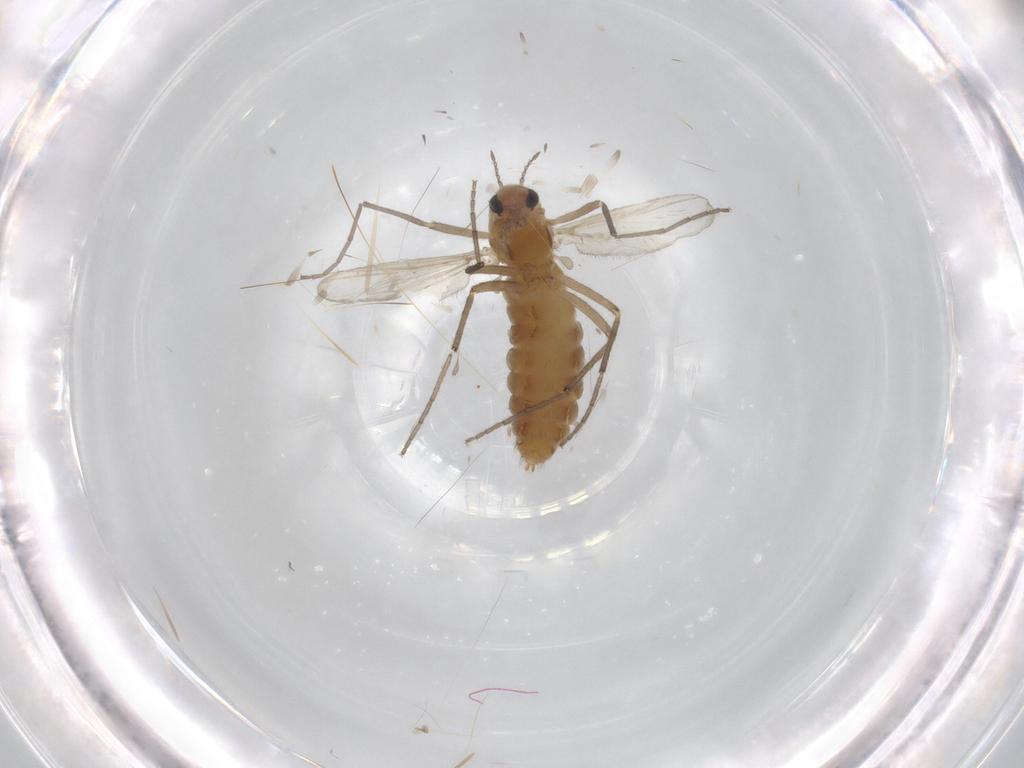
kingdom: Animalia
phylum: Arthropoda
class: Insecta
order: Diptera
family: Chironomidae
